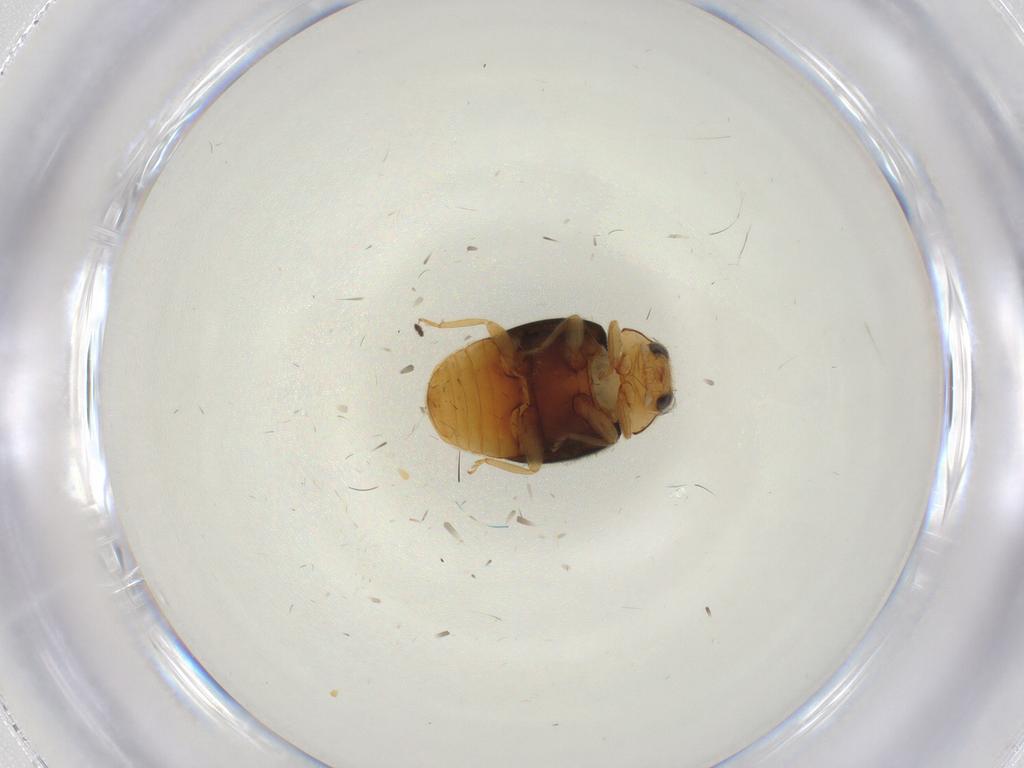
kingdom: Animalia
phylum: Arthropoda
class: Insecta
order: Coleoptera
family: Coccinellidae
